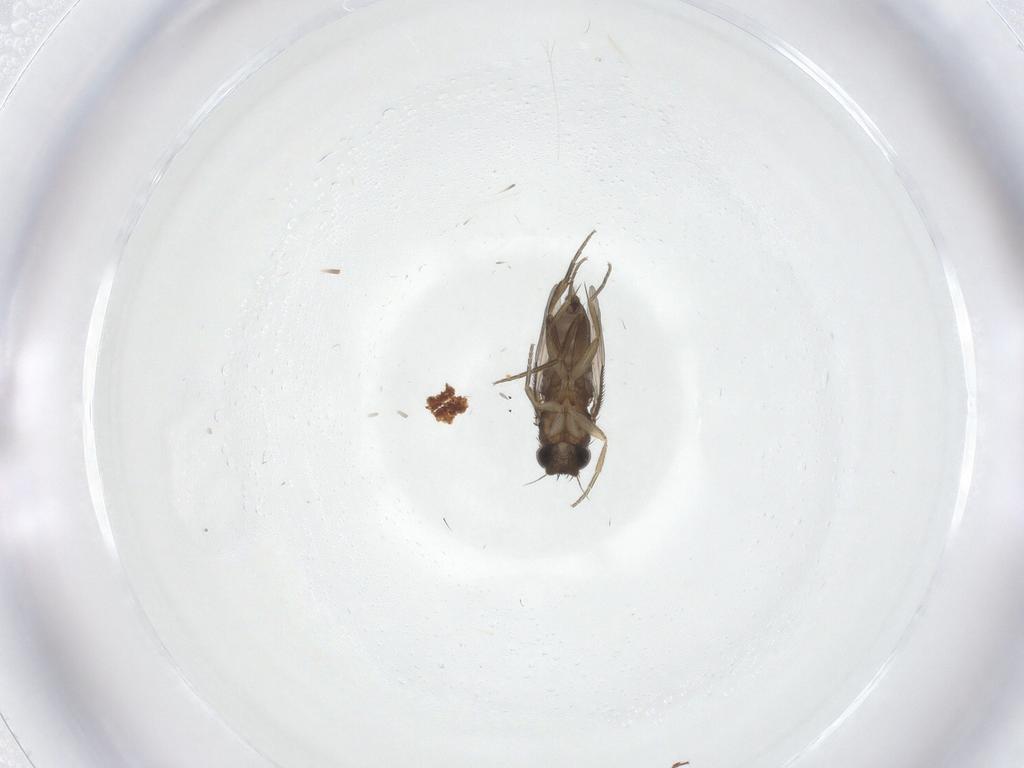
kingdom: Animalia
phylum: Arthropoda
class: Insecta
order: Diptera
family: Phoridae
